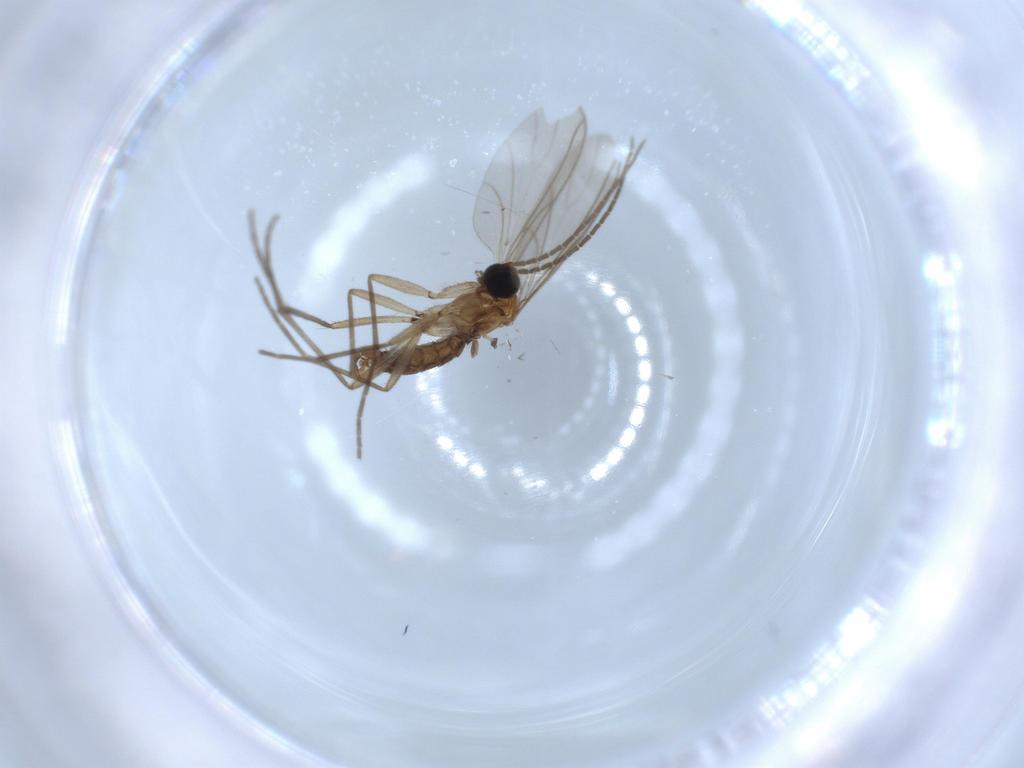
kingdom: Animalia
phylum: Arthropoda
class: Insecta
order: Diptera
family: Sciaridae
